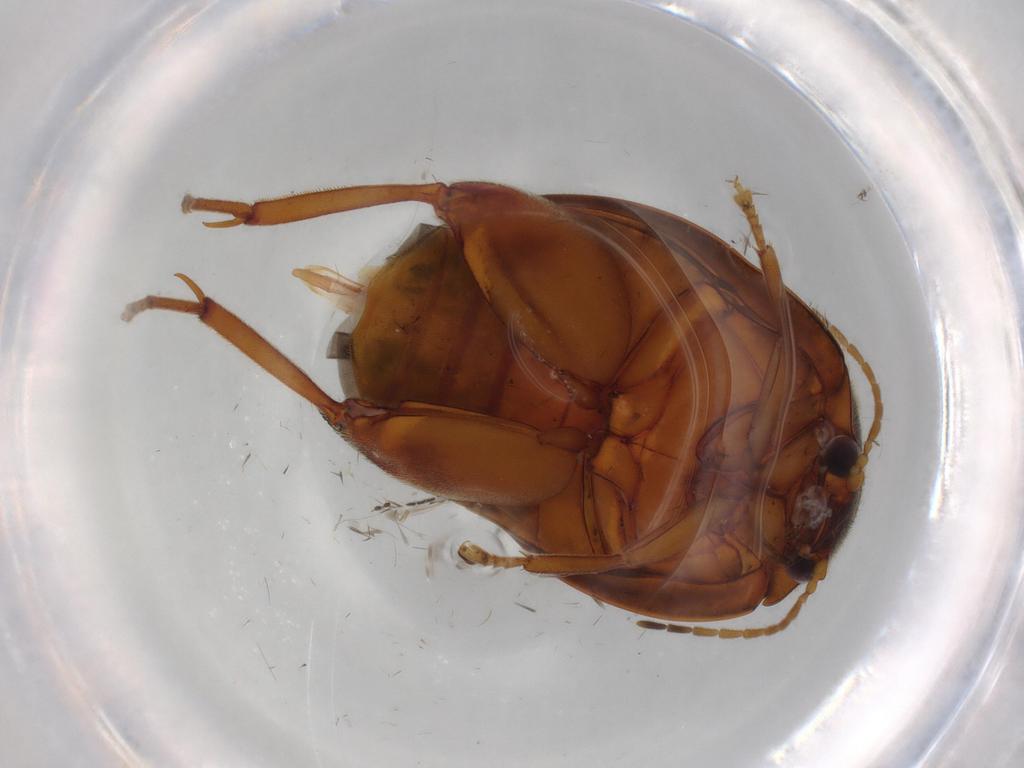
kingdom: Animalia
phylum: Arthropoda
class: Insecta
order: Coleoptera
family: Scirtidae
